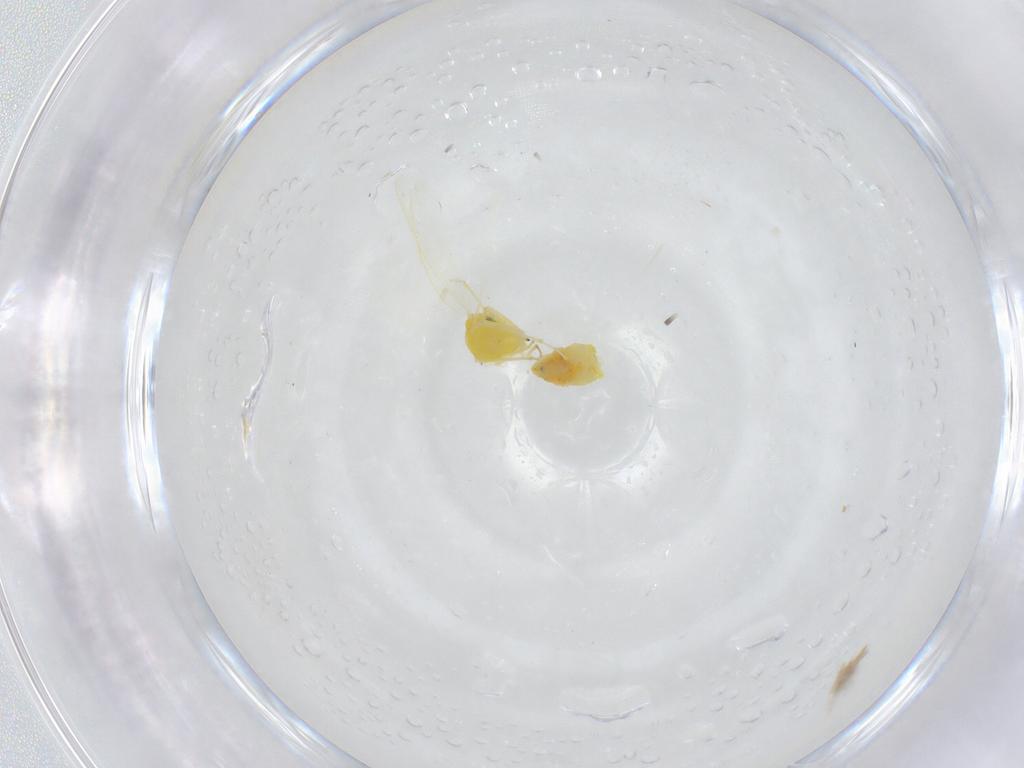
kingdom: Animalia
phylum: Arthropoda
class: Insecta
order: Hemiptera
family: Aleyrodidae
